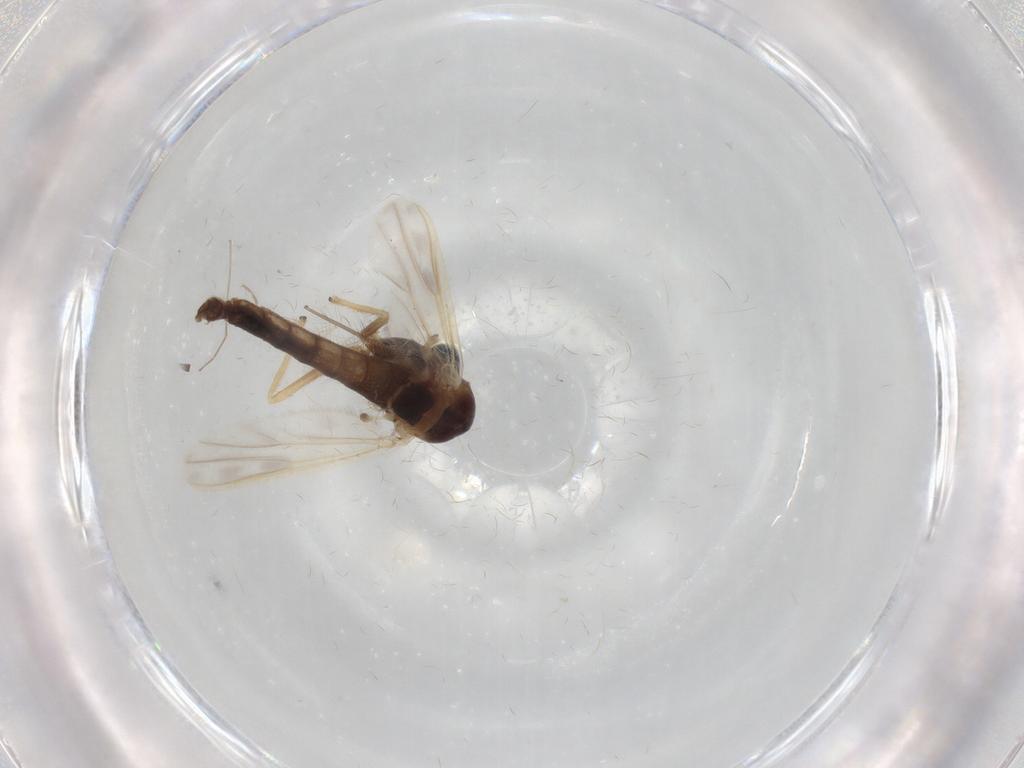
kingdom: Animalia
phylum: Arthropoda
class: Insecta
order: Diptera
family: Chironomidae
